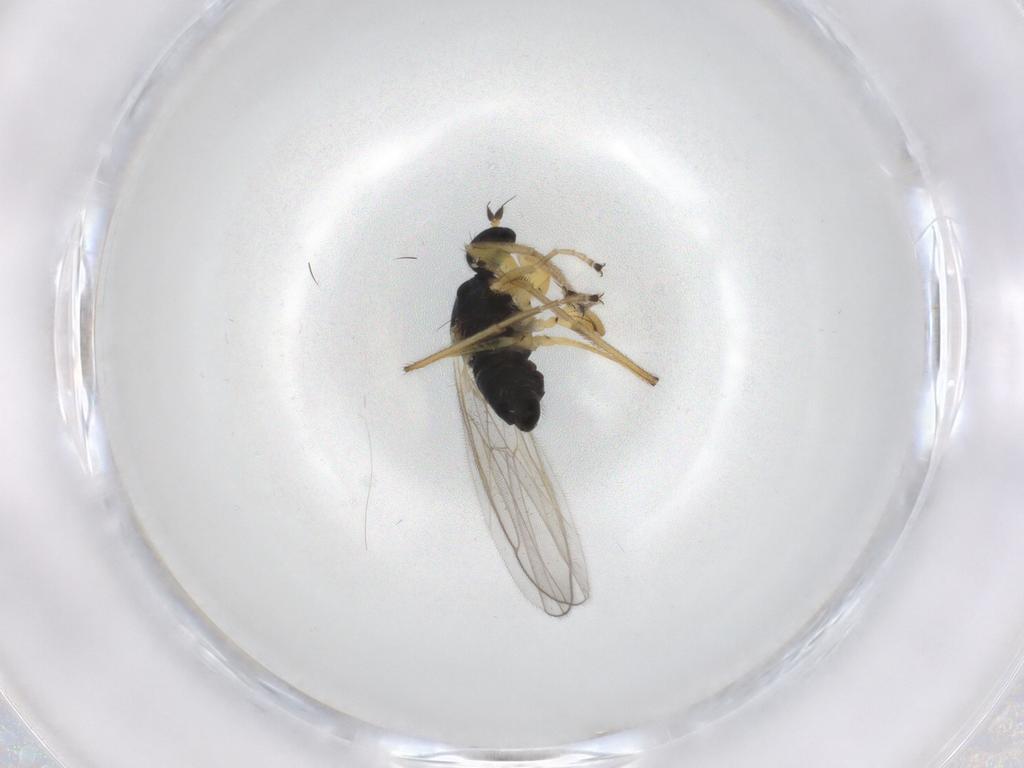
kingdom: Animalia
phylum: Arthropoda
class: Insecta
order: Diptera
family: Hybotidae
